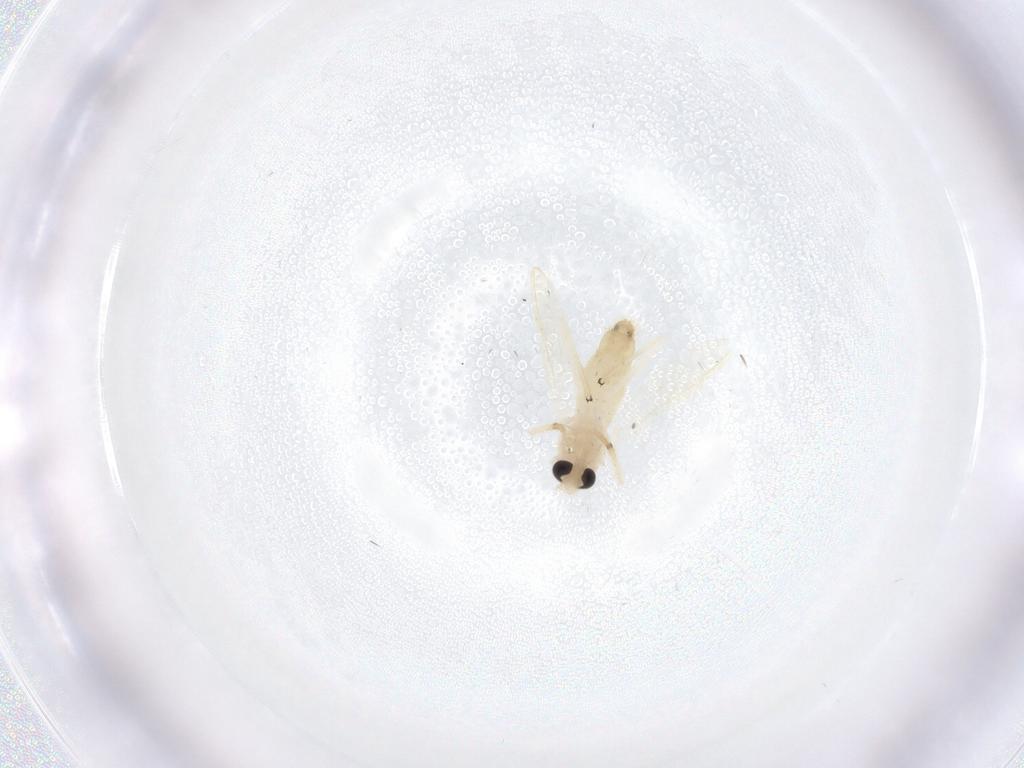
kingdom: Animalia
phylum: Arthropoda
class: Insecta
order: Diptera
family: Chironomidae
